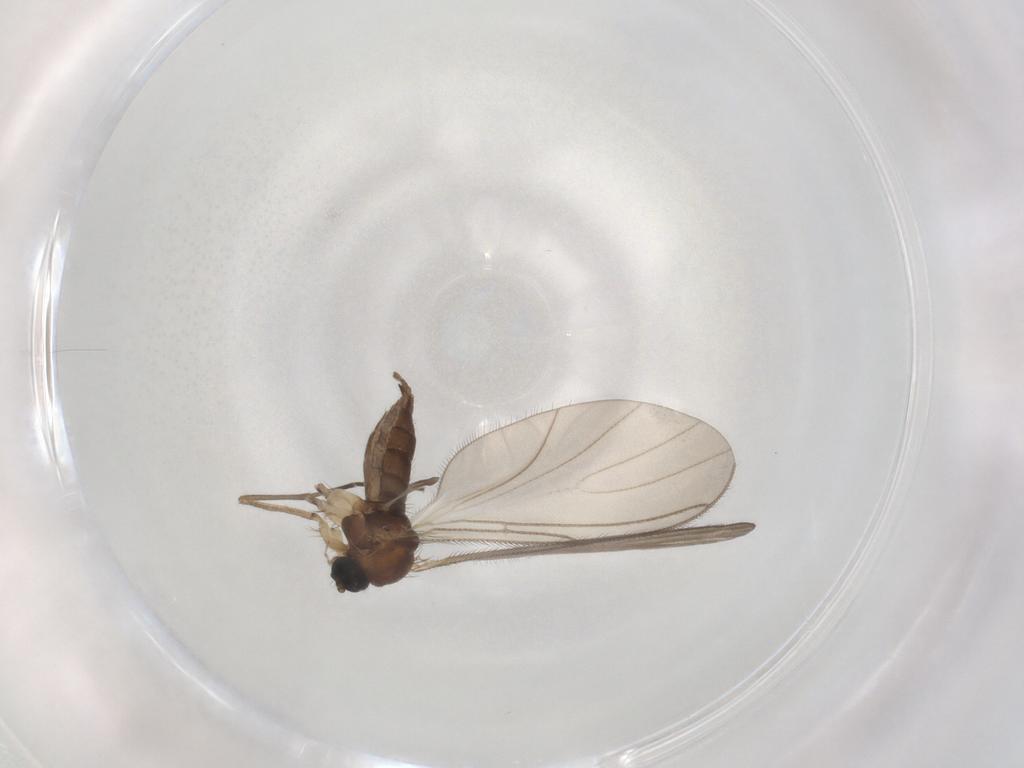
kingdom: Animalia
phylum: Arthropoda
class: Insecta
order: Diptera
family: Sciaridae
